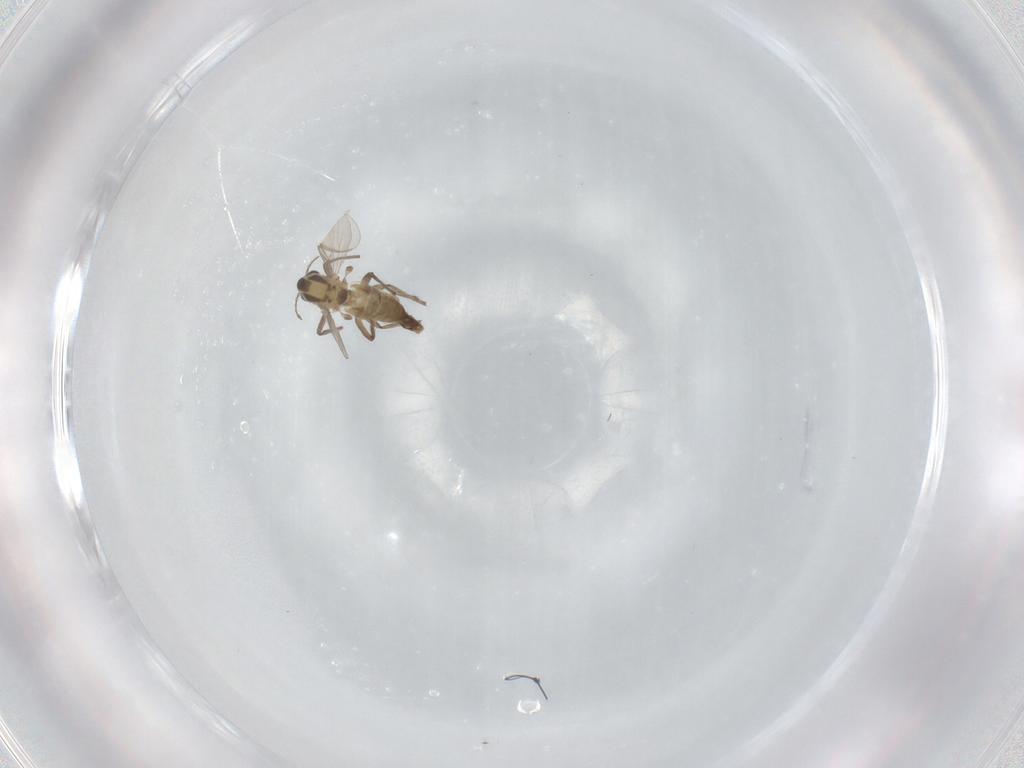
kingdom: Animalia
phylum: Arthropoda
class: Insecta
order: Diptera
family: Chironomidae
